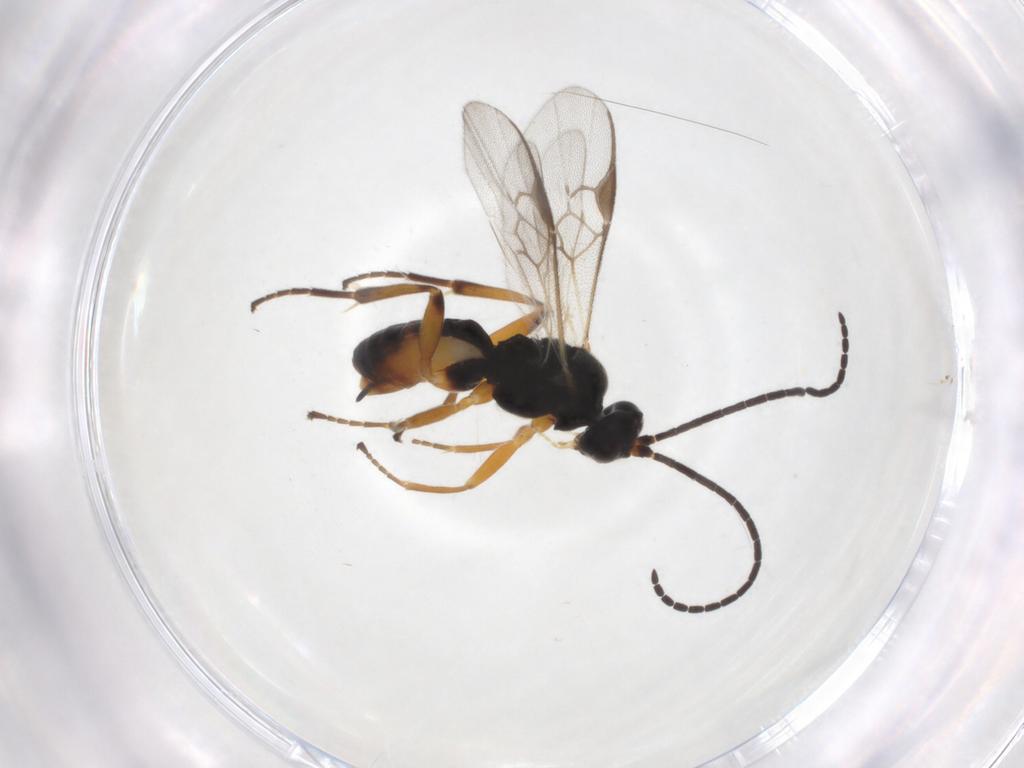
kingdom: Animalia
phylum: Arthropoda
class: Insecta
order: Hymenoptera
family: Braconidae
